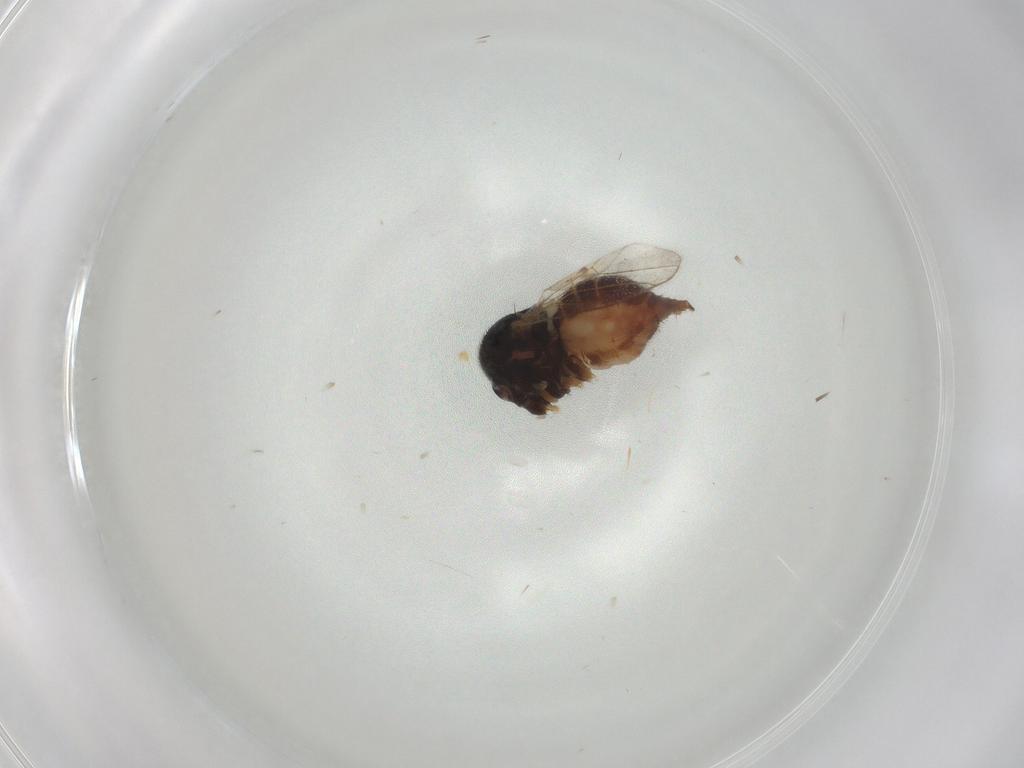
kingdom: Animalia
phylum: Arthropoda
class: Insecta
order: Diptera
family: Chironomidae
